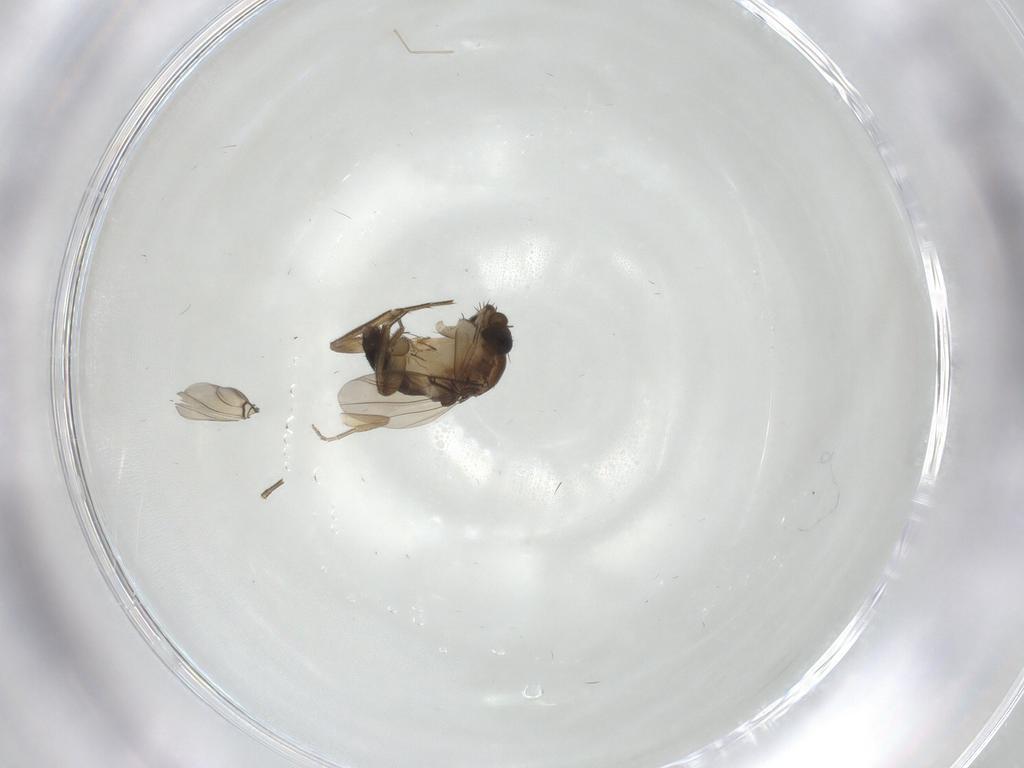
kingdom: Animalia
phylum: Arthropoda
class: Insecta
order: Diptera
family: Phoridae
